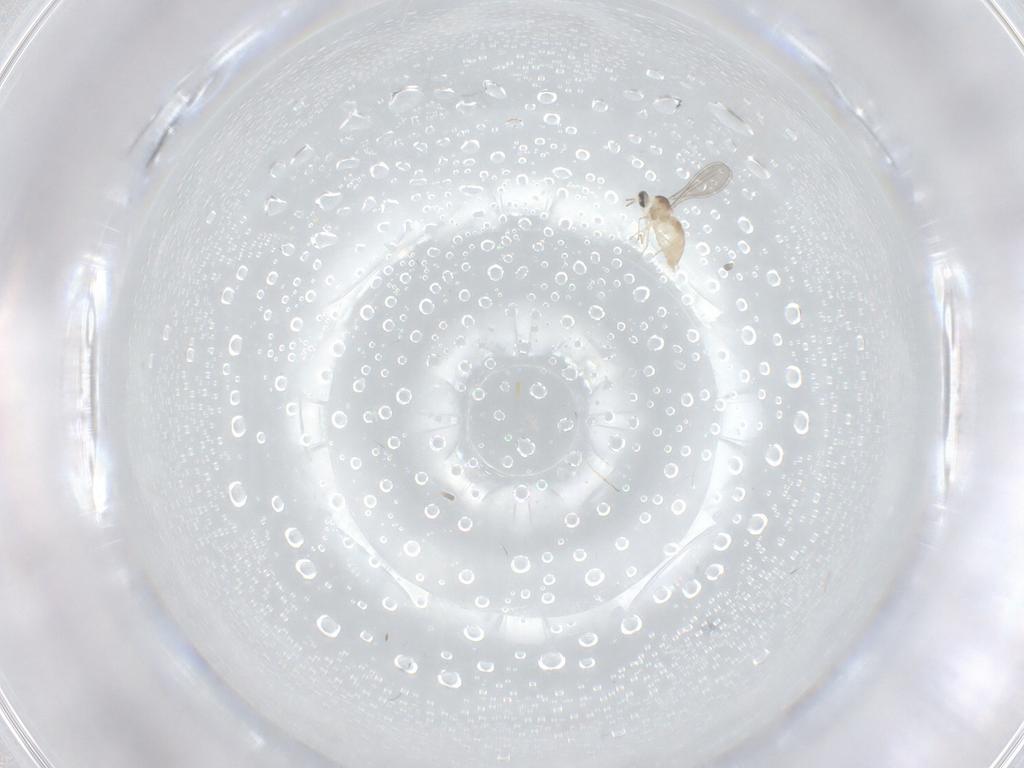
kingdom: Animalia
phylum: Arthropoda
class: Insecta
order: Diptera
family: Cecidomyiidae
